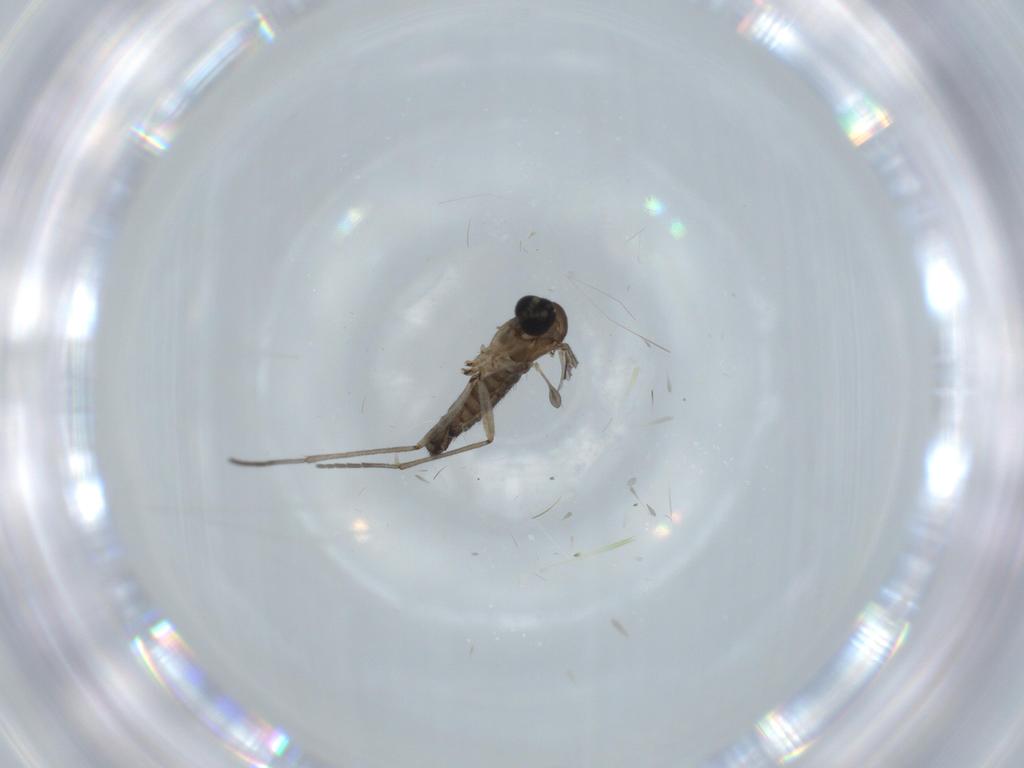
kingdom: Animalia
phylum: Arthropoda
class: Insecta
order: Diptera
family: Sciaridae
